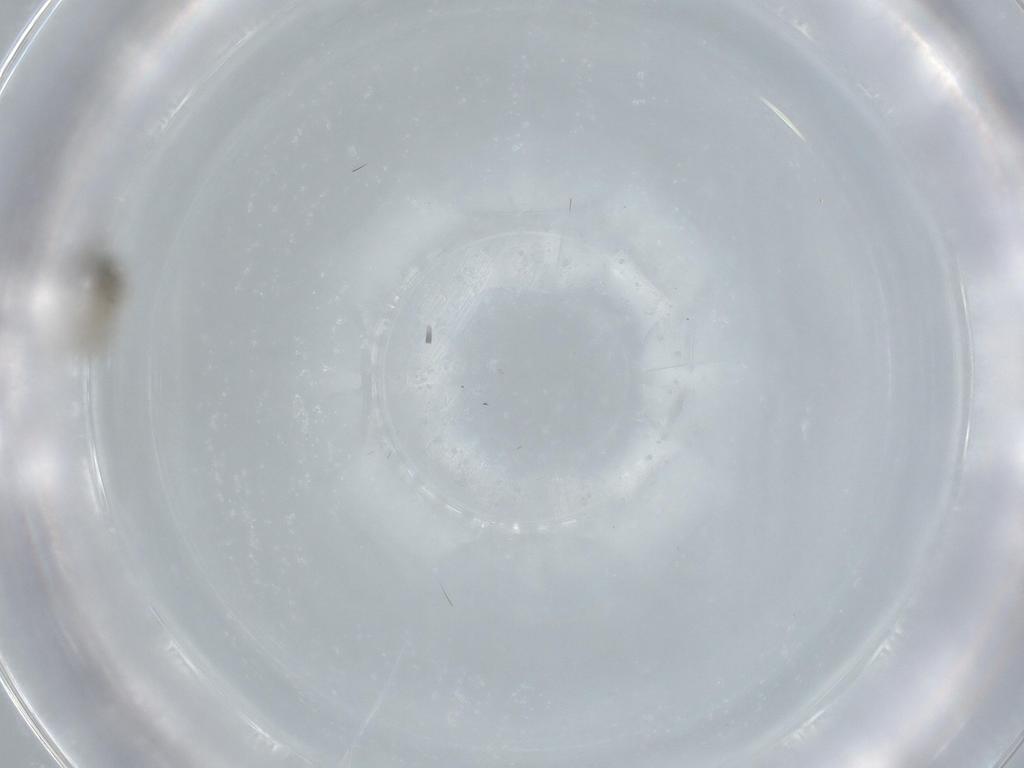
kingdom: Animalia
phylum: Arthropoda
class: Insecta
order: Diptera
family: Cecidomyiidae
